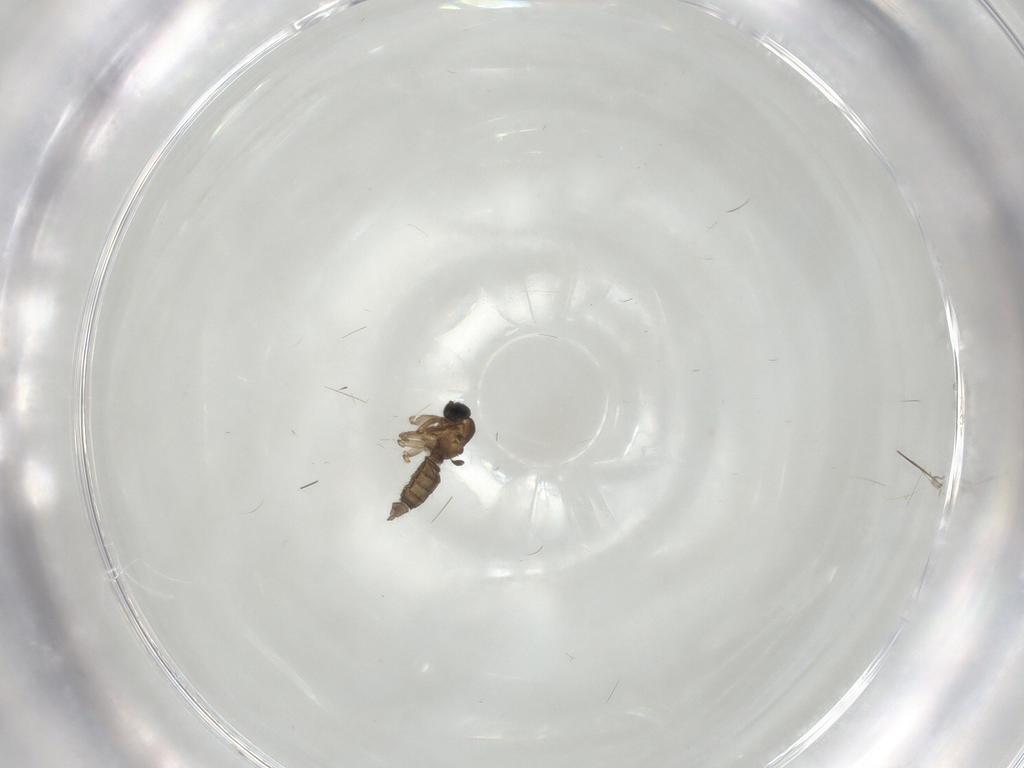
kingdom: Animalia
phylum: Arthropoda
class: Insecta
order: Diptera
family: Sciaridae
